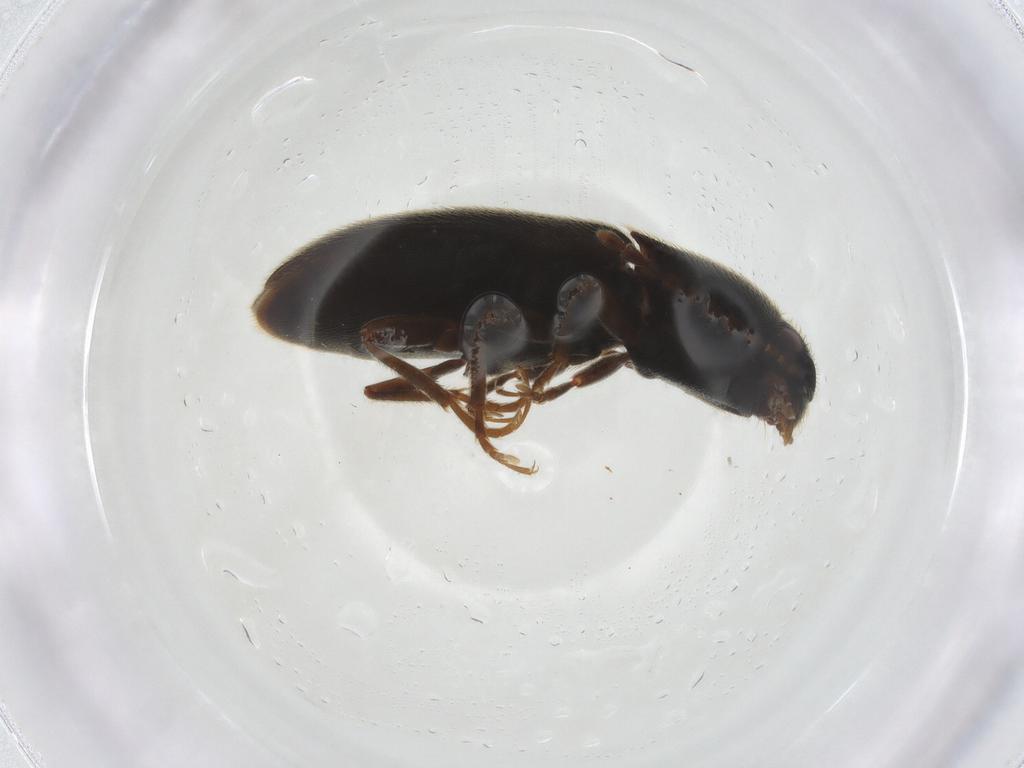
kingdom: Animalia
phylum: Arthropoda
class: Insecta
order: Coleoptera
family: Elateridae
